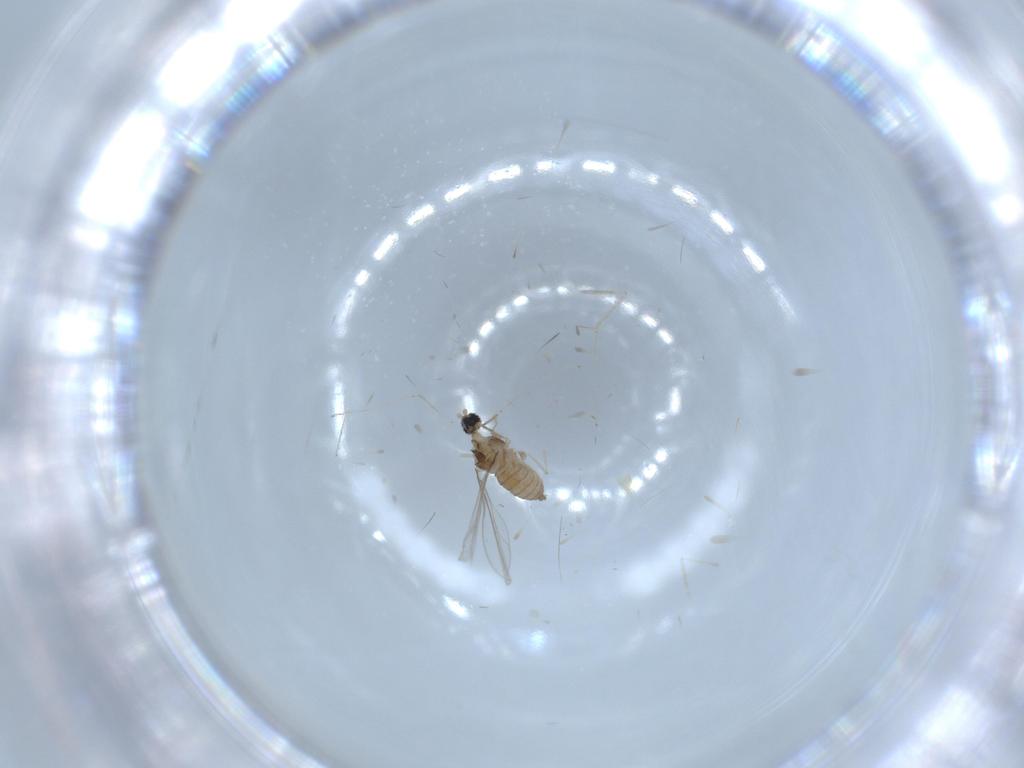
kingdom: Animalia
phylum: Arthropoda
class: Insecta
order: Diptera
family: Cecidomyiidae
